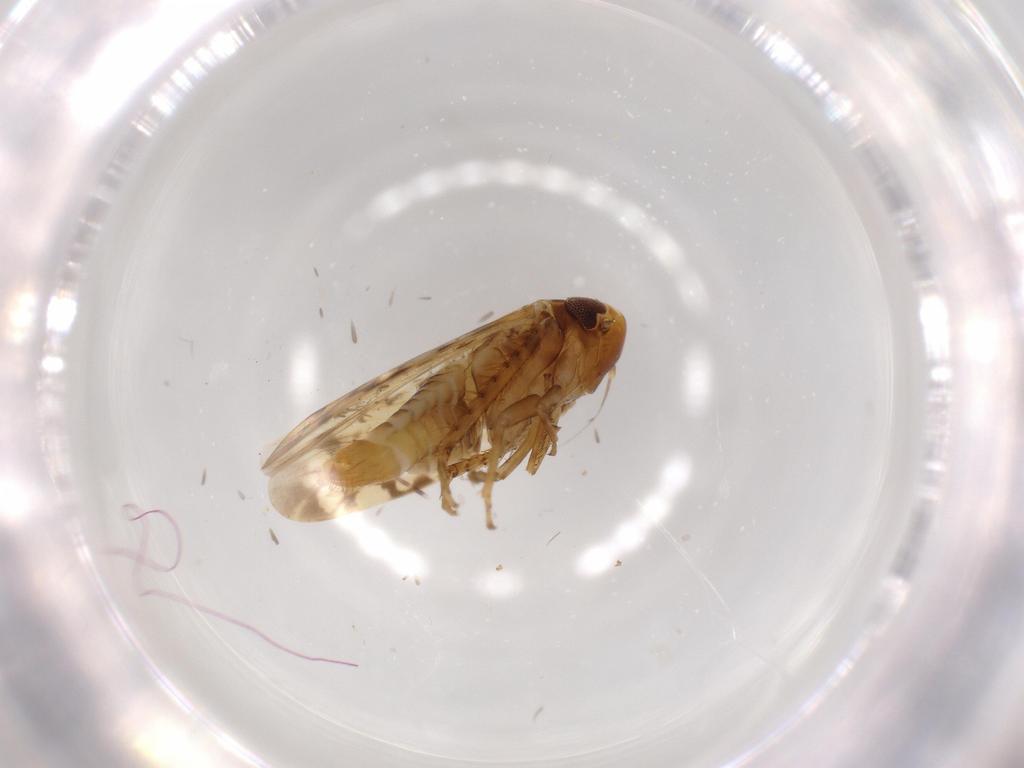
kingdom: Animalia
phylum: Arthropoda
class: Insecta
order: Hemiptera
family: Cicadellidae
